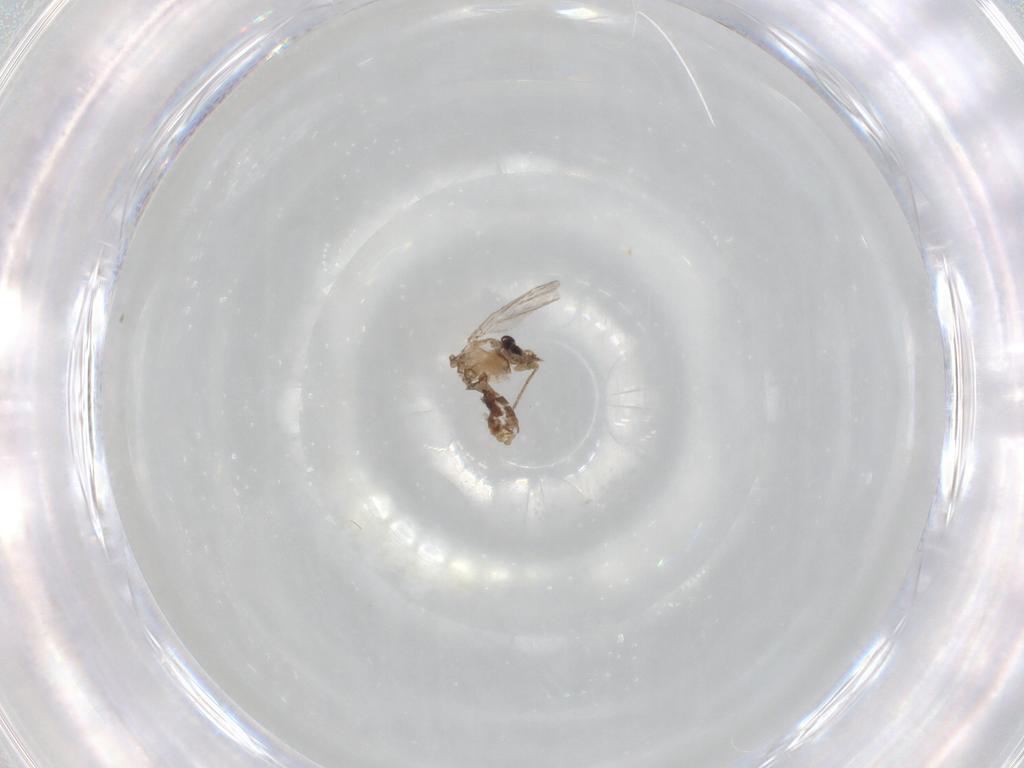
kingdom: Animalia
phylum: Arthropoda
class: Insecta
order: Diptera
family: Ceratopogonidae
